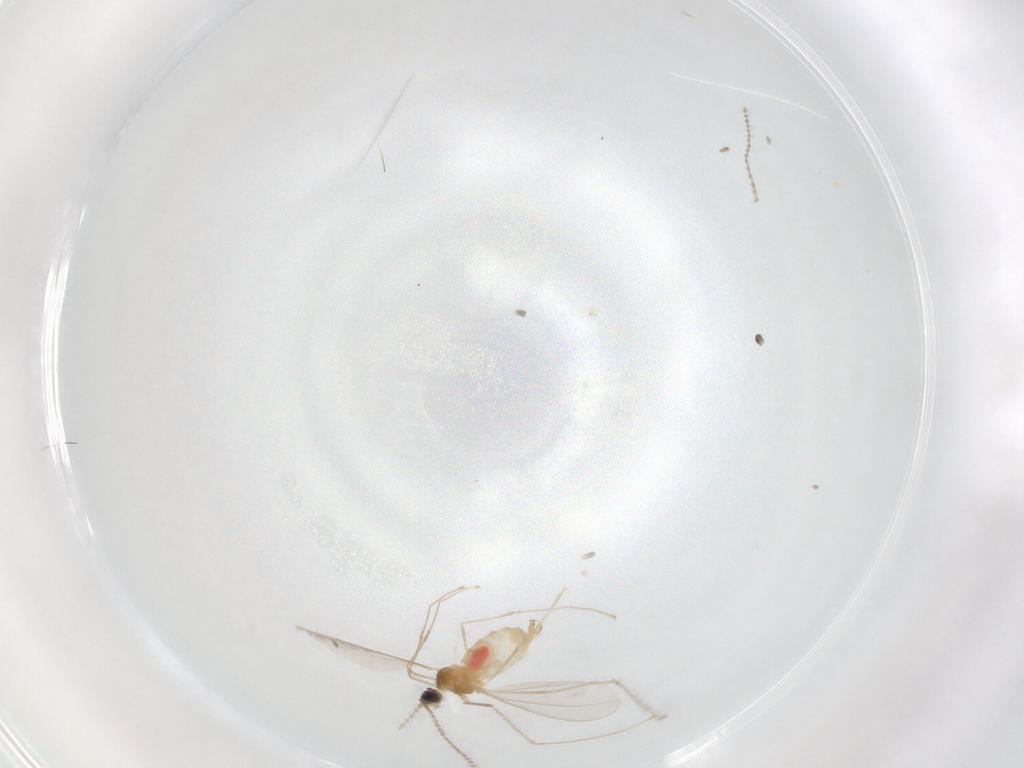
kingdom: Animalia
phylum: Arthropoda
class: Insecta
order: Diptera
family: Cecidomyiidae
